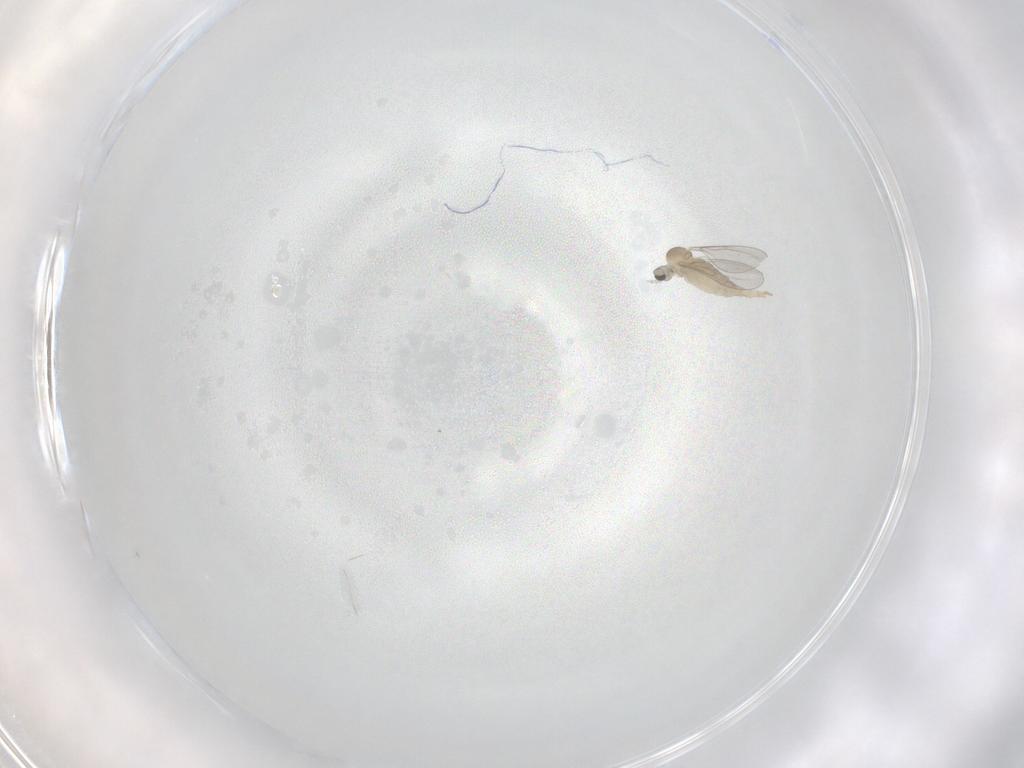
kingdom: Animalia
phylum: Arthropoda
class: Insecta
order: Diptera
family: Cecidomyiidae
